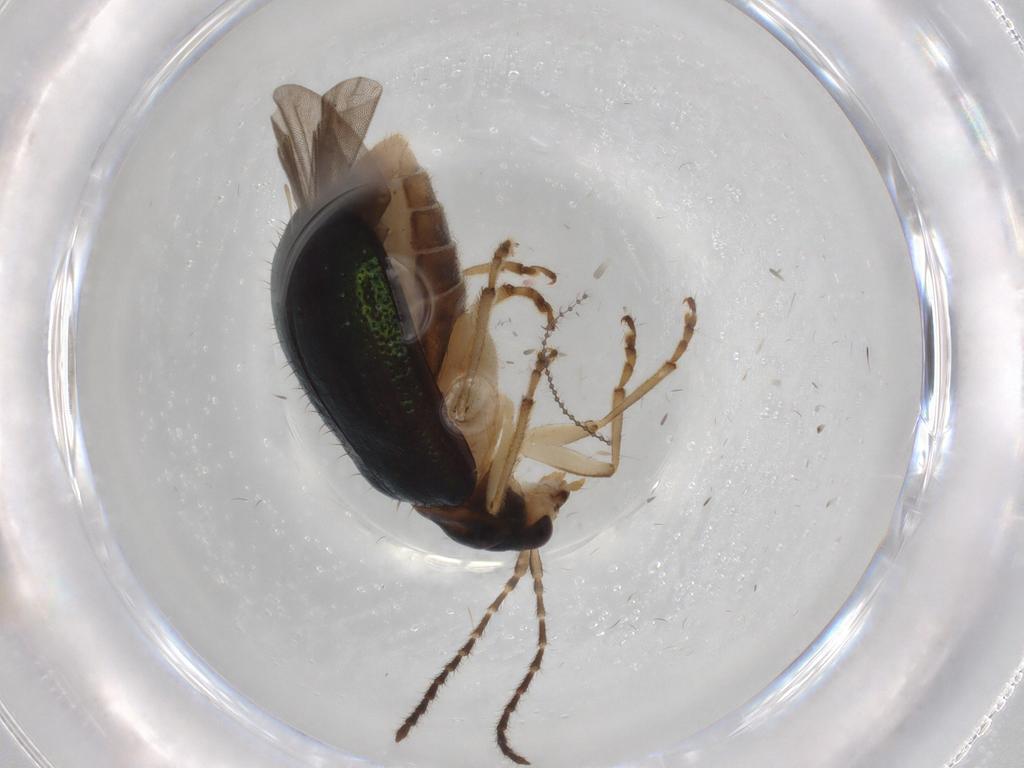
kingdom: Animalia
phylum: Arthropoda
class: Insecta
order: Coleoptera
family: Chrysomelidae
